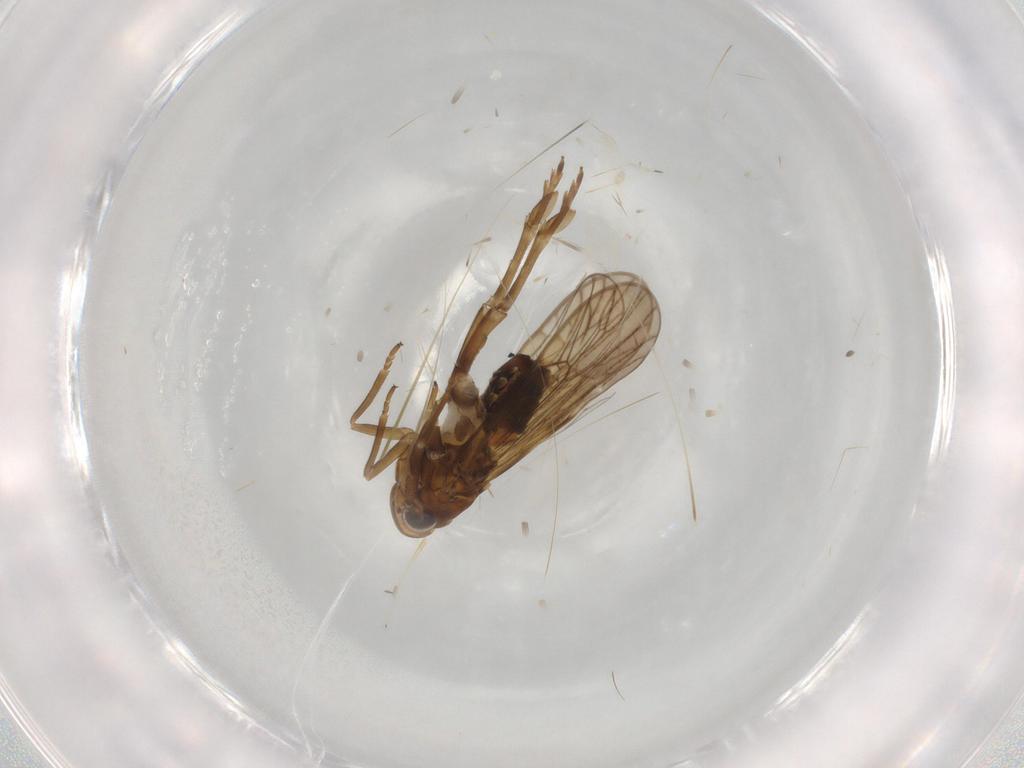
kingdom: Animalia
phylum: Arthropoda
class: Insecta
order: Hemiptera
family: Delphacidae
